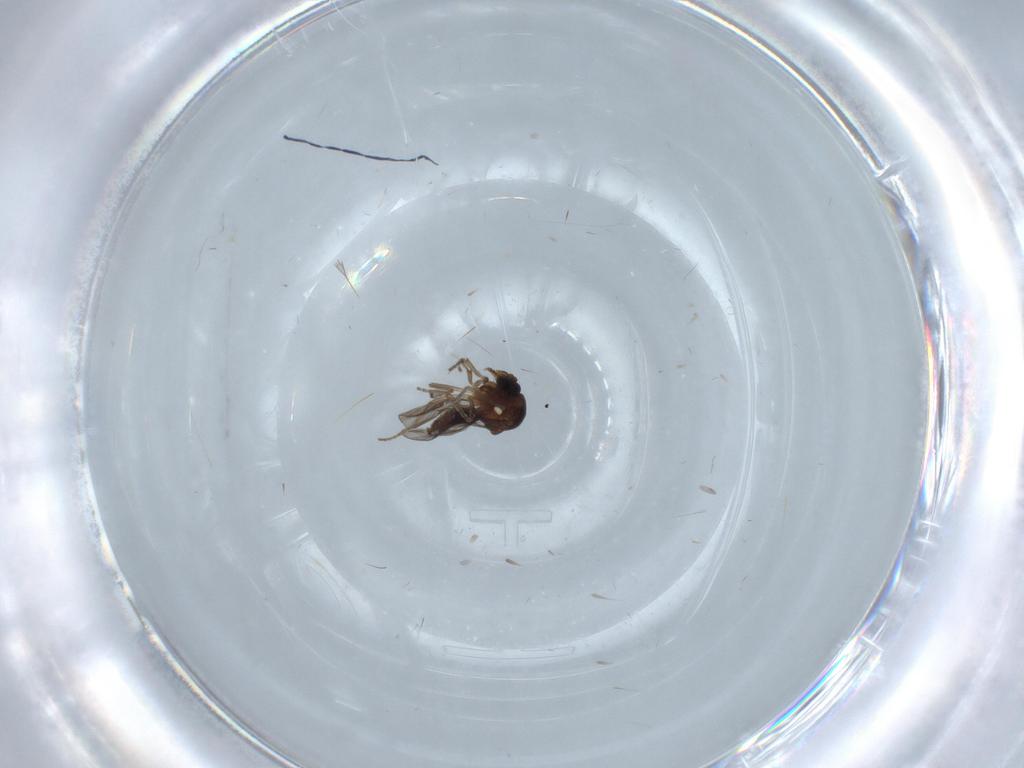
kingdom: Animalia
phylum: Arthropoda
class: Insecta
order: Diptera
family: Ceratopogonidae
